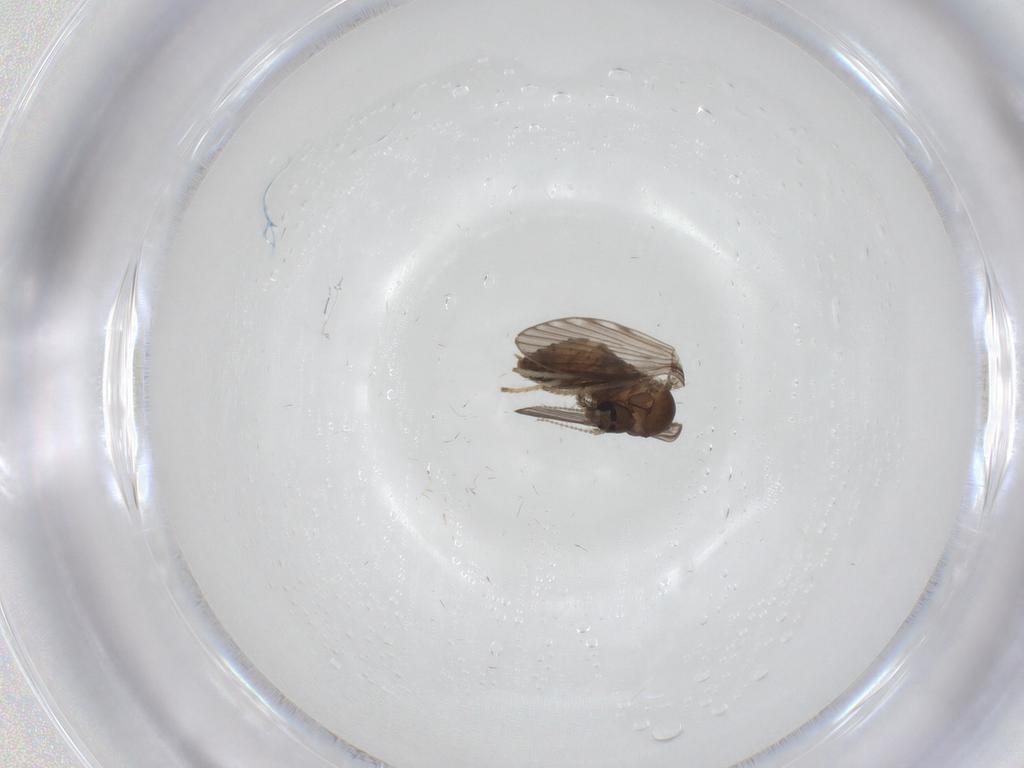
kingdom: Animalia
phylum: Arthropoda
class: Insecta
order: Diptera
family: Psychodidae
